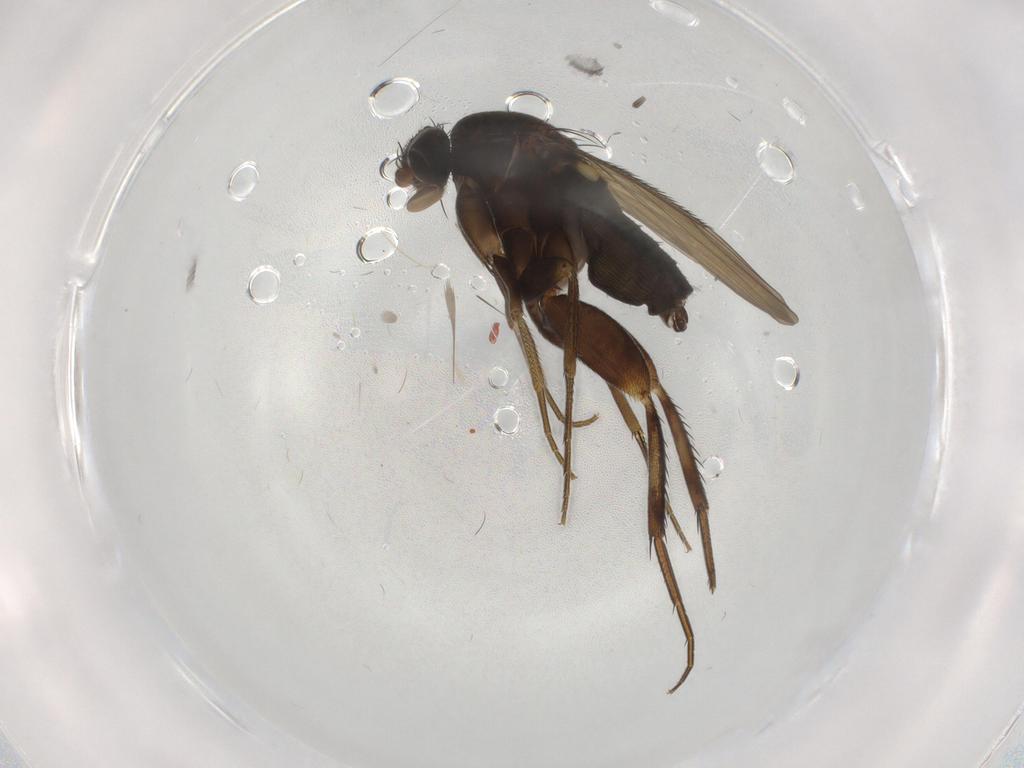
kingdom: Animalia
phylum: Arthropoda
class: Insecta
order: Diptera
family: Phoridae
